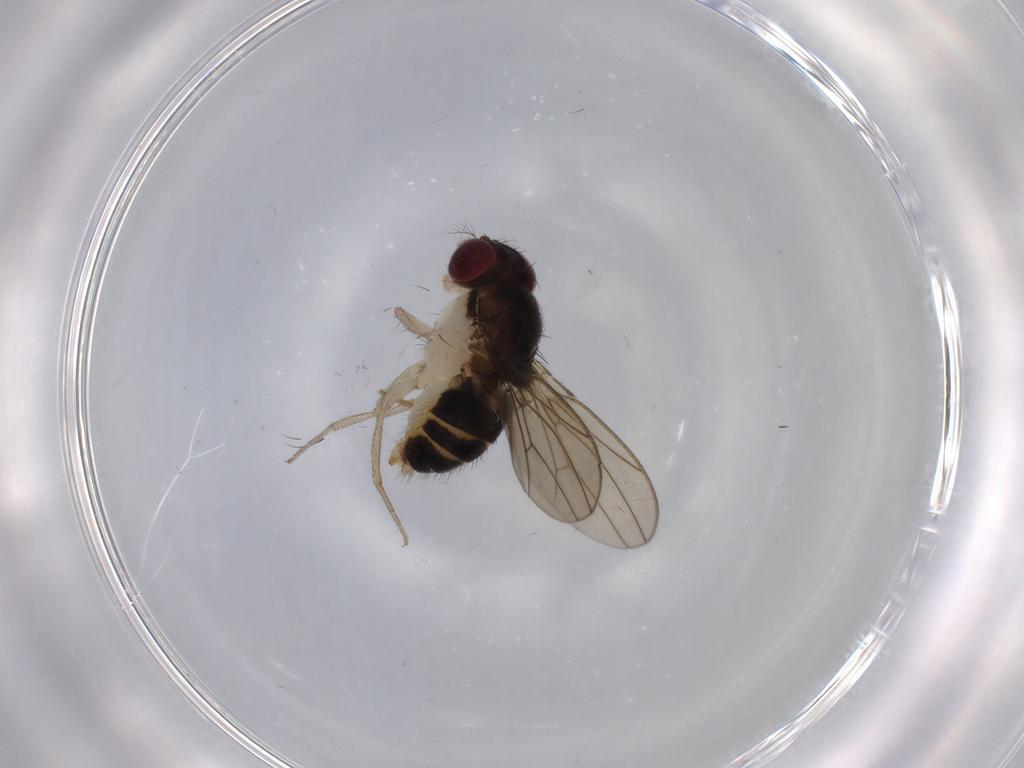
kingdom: Animalia
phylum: Arthropoda
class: Insecta
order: Diptera
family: Drosophilidae
